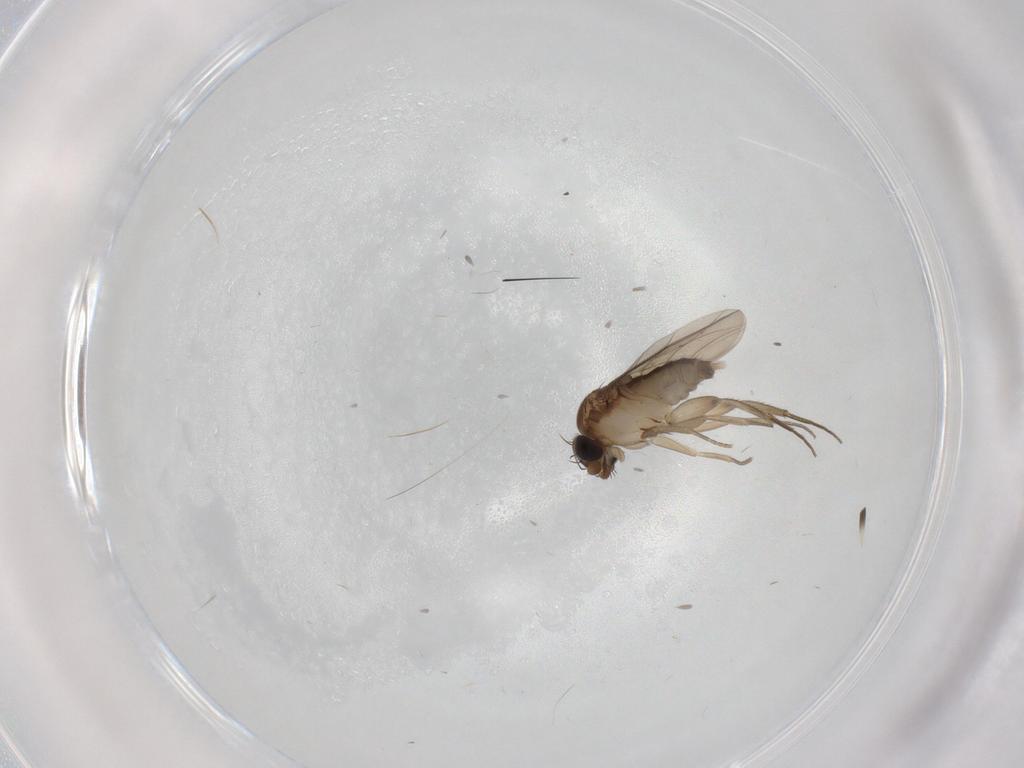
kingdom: Animalia
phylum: Arthropoda
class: Insecta
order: Diptera
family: Phoridae
